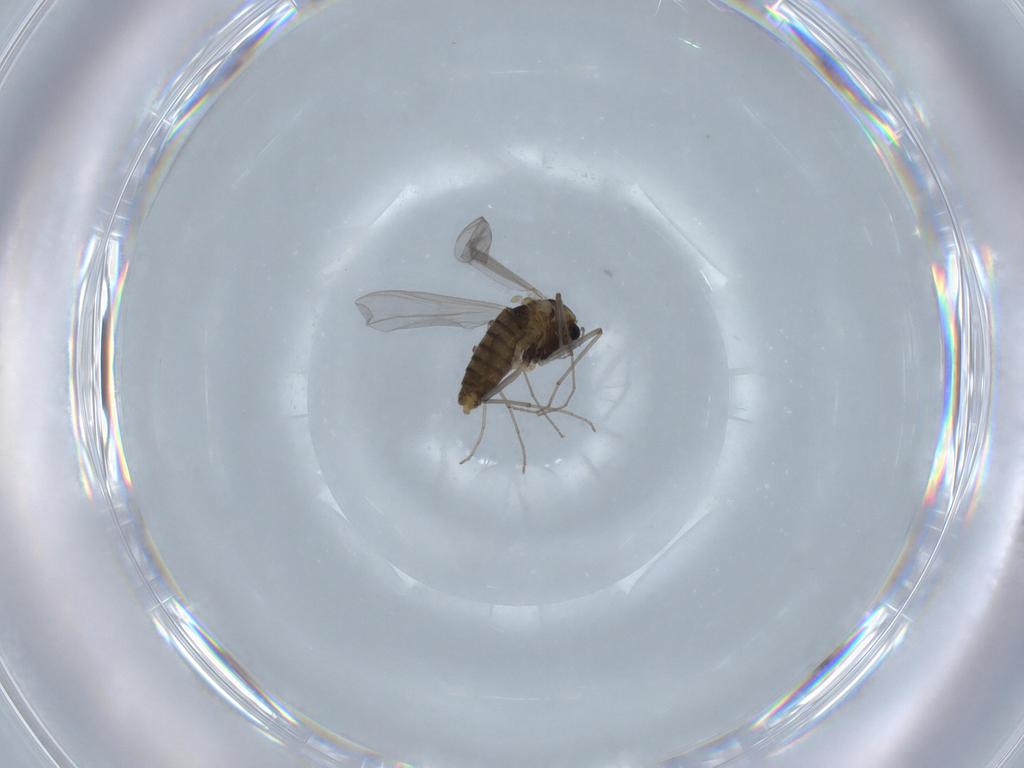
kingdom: Animalia
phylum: Arthropoda
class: Insecta
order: Diptera
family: Chironomidae
